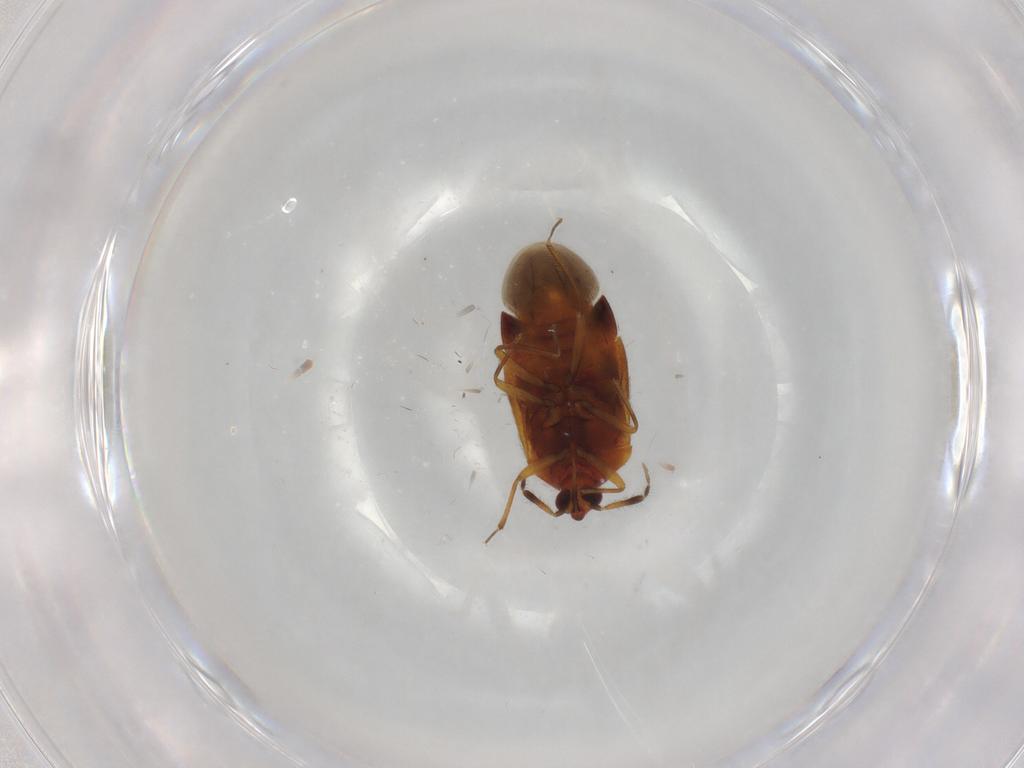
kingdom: Animalia
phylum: Arthropoda
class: Insecta
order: Hemiptera
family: Anthocoridae
